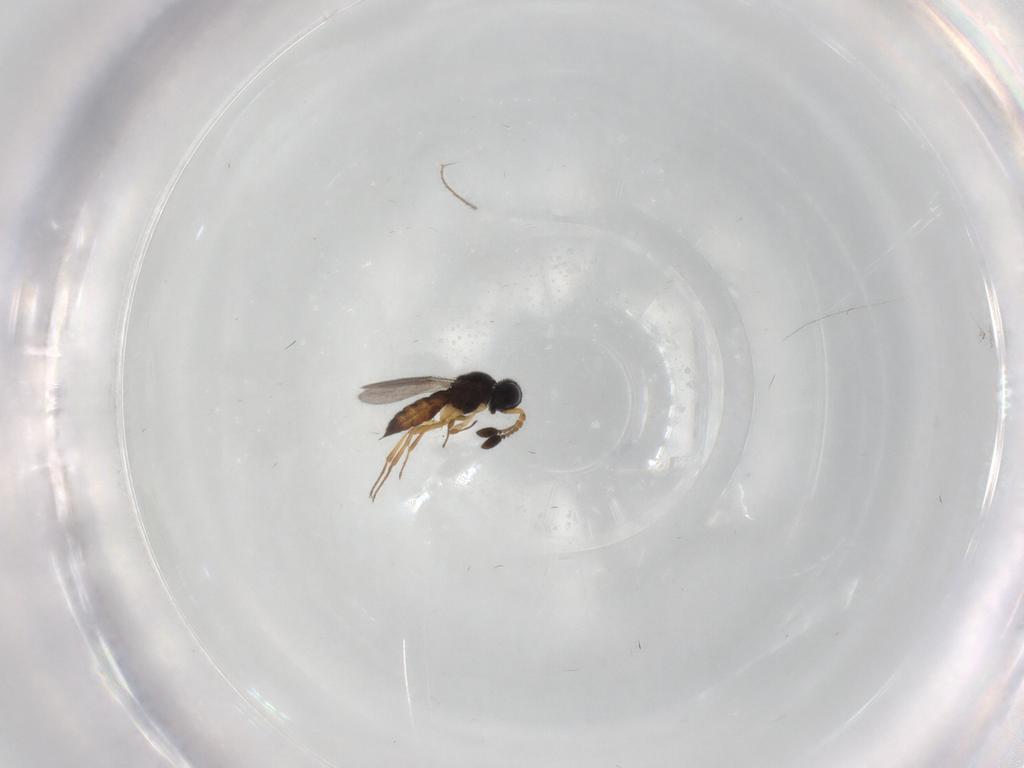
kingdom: Animalia
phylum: Arthropoda
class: Insecta
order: Hymenoptera
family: Scelionidae
